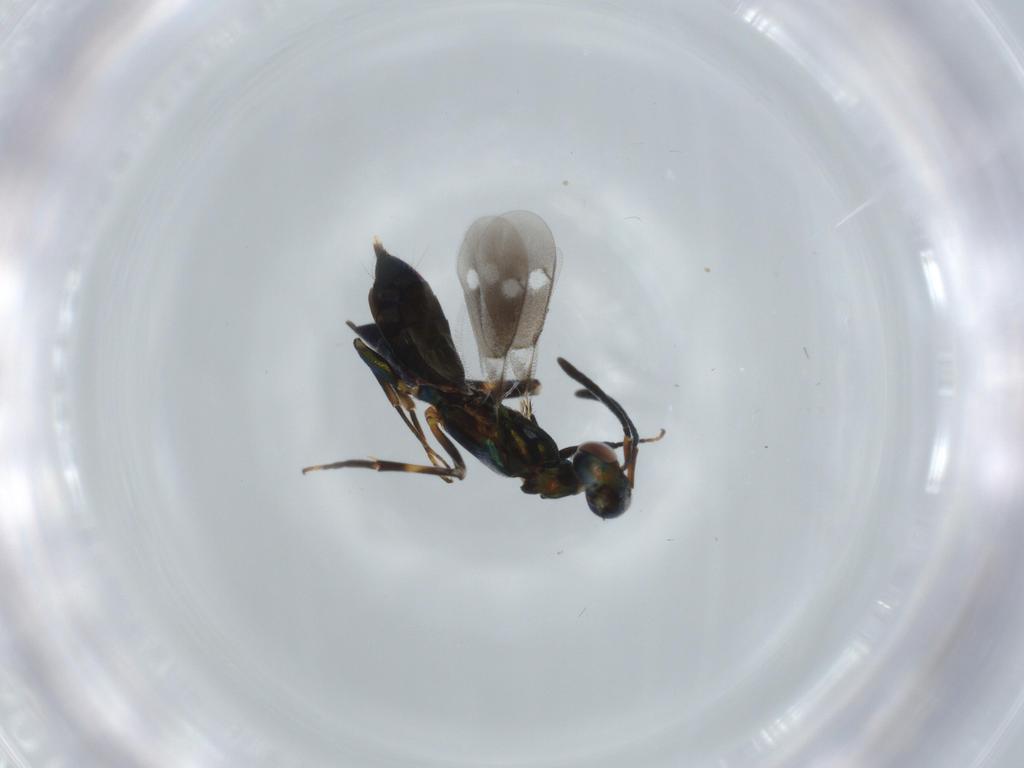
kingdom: Animalia
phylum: Arthropoda
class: Insecta
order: Hymenoptera
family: Eupelmidae
